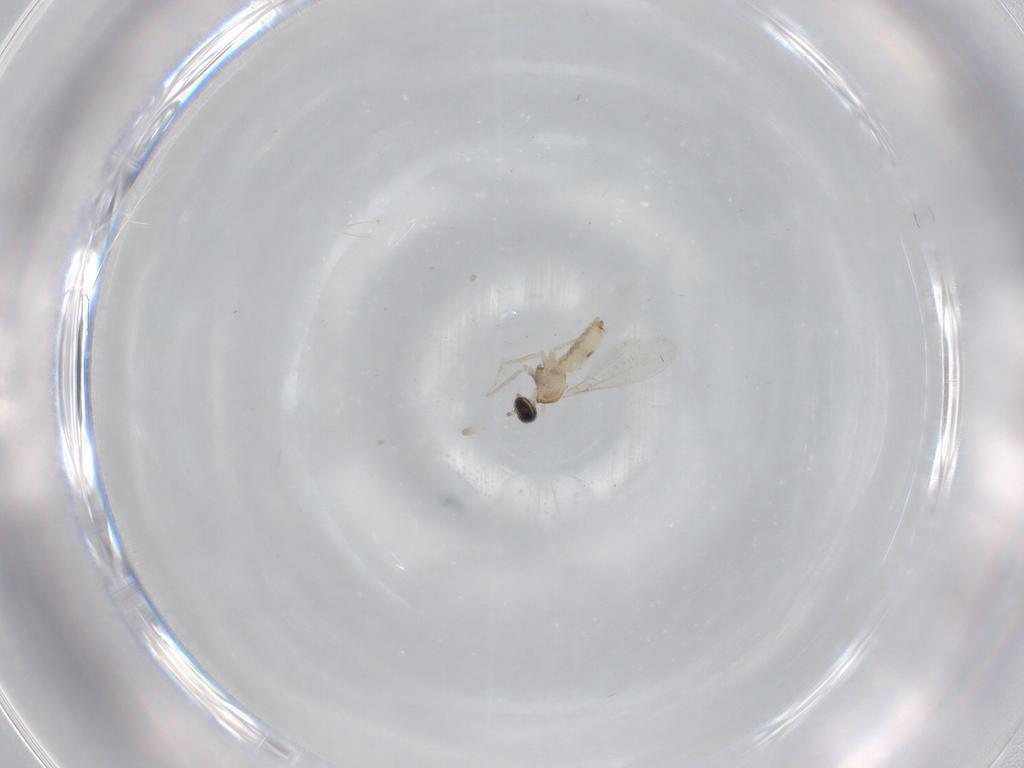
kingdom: Animalia
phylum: Arthropoda
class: Insecta
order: Diptera
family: Cecidomyiidae
